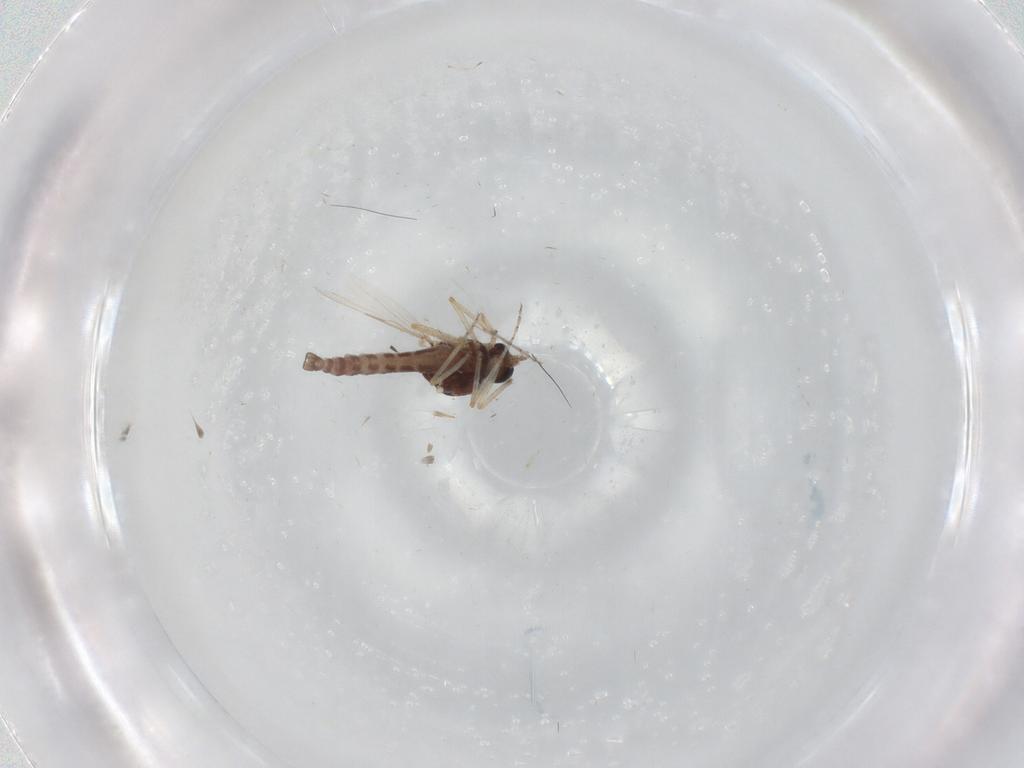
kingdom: Animalia
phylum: Arthropoda
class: Insecta
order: Diptera
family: Ceratopogonidae
